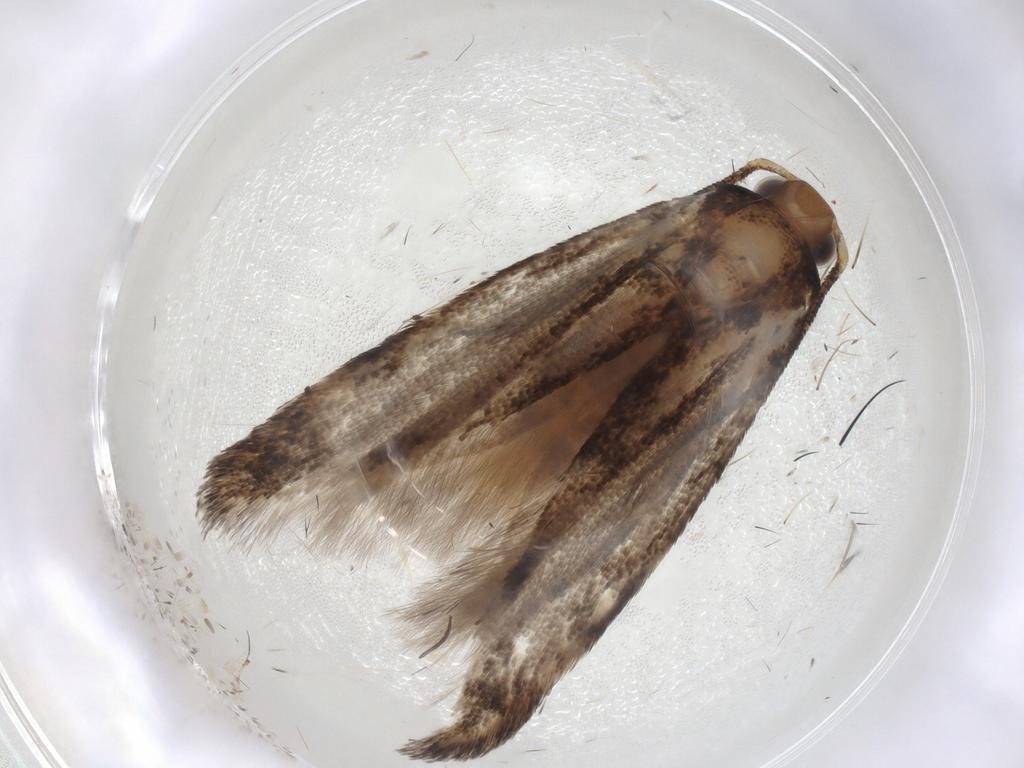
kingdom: Animalia
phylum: Arthropoda
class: Insecta
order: Lepidoptera
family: Gelechiidae
